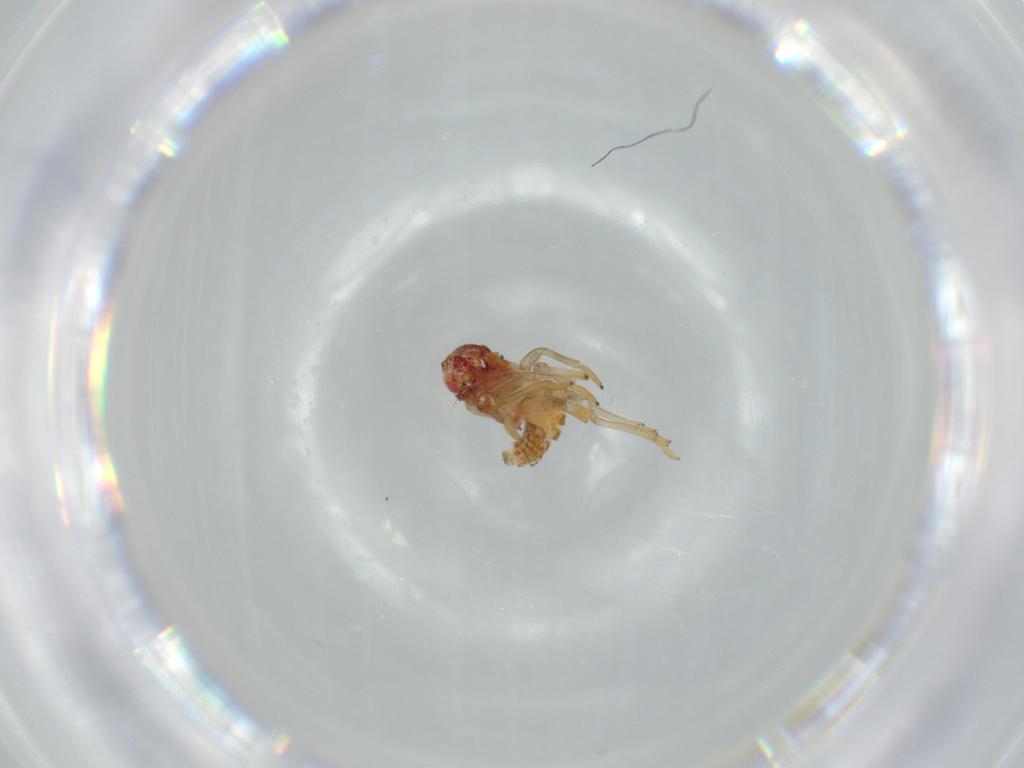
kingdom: Animalia
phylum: Arthropoda
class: Insecta
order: Hemiptera
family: Issidae
